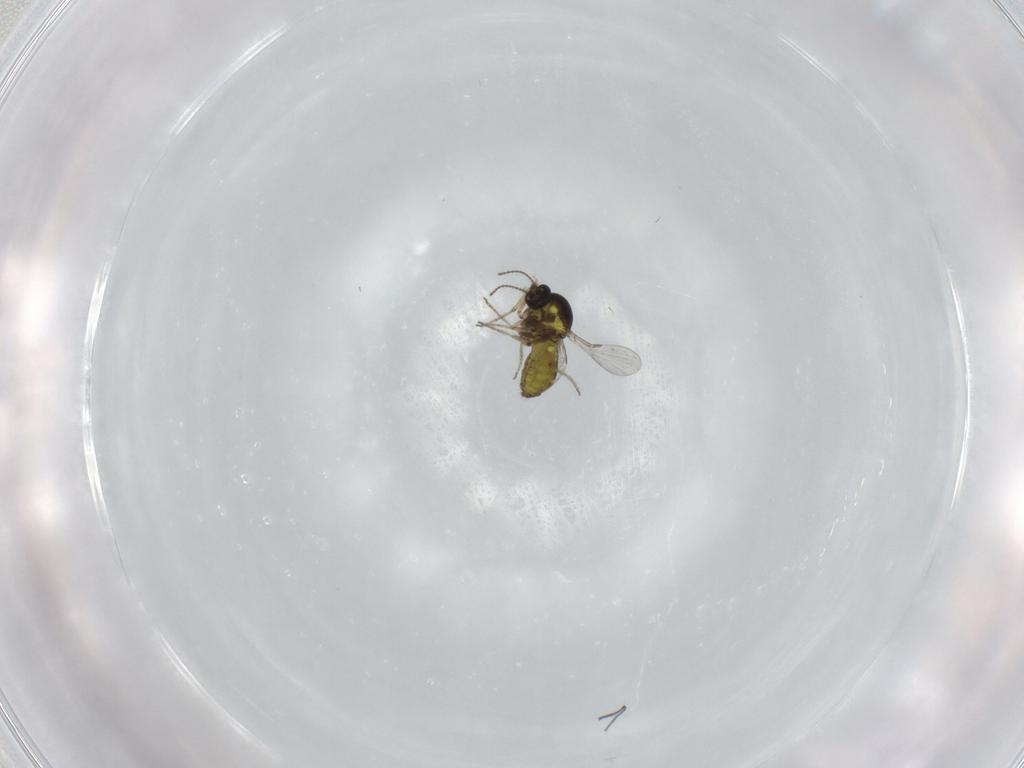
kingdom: Animalia
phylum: Arthropoda
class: Insecta
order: Diptera
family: Ceratopogonidae
